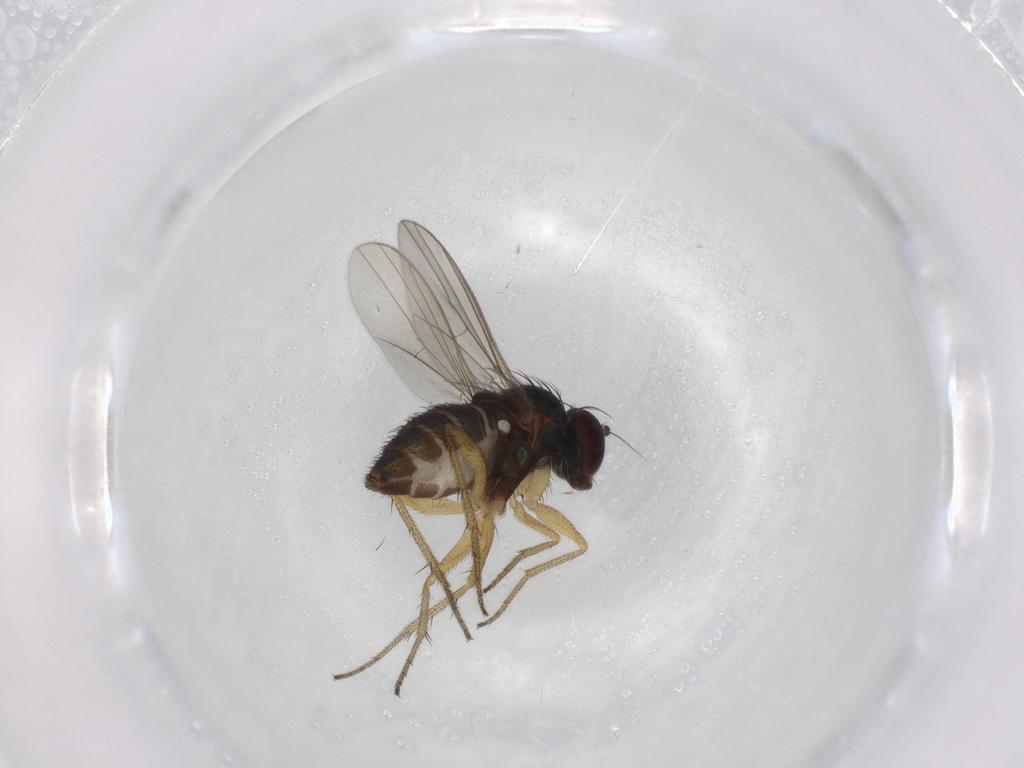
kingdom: Animalia
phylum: Arthropoda
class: Insecta
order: Diptera
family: Dolichopodidae
